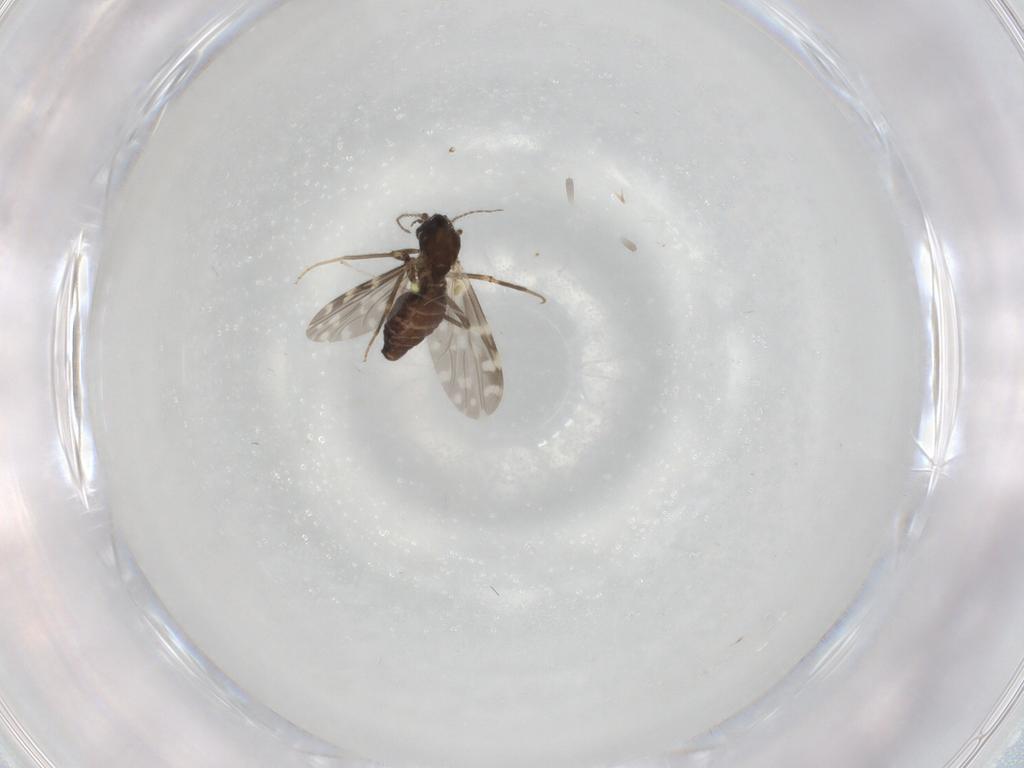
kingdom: Animalia
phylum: Arthropoda
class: Insecta
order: Diptera
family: Ceratopogonidae
